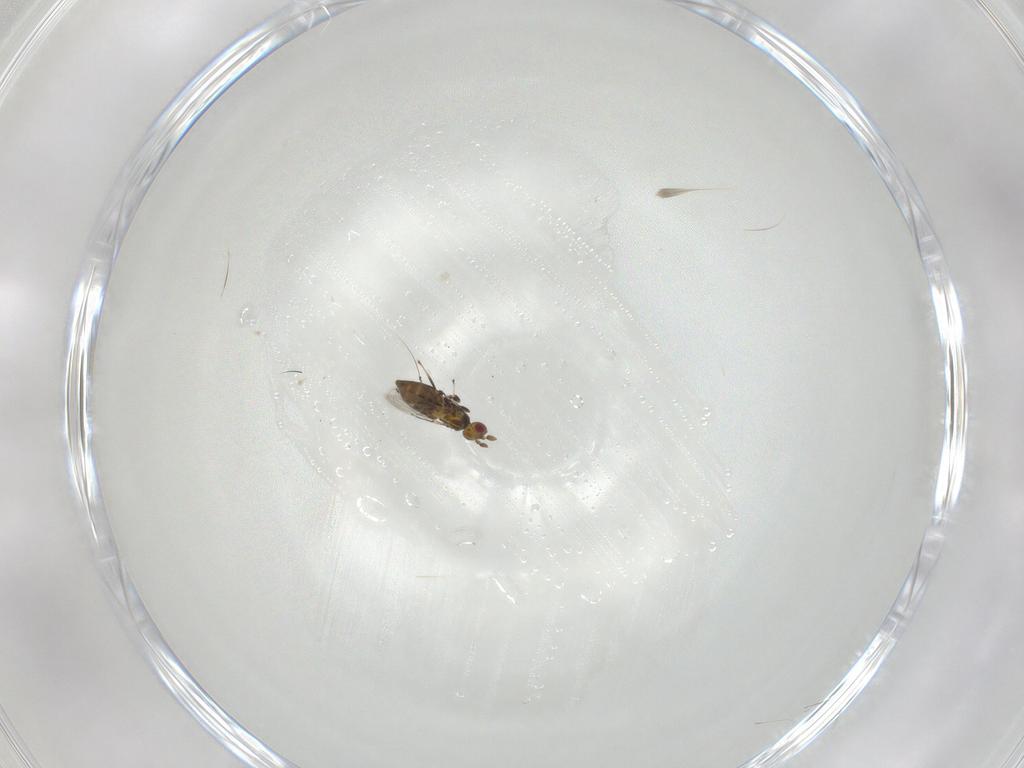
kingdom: Animalia
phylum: Arthropoda
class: Insecta
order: Hymenoptera
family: Trichogrammatidae
